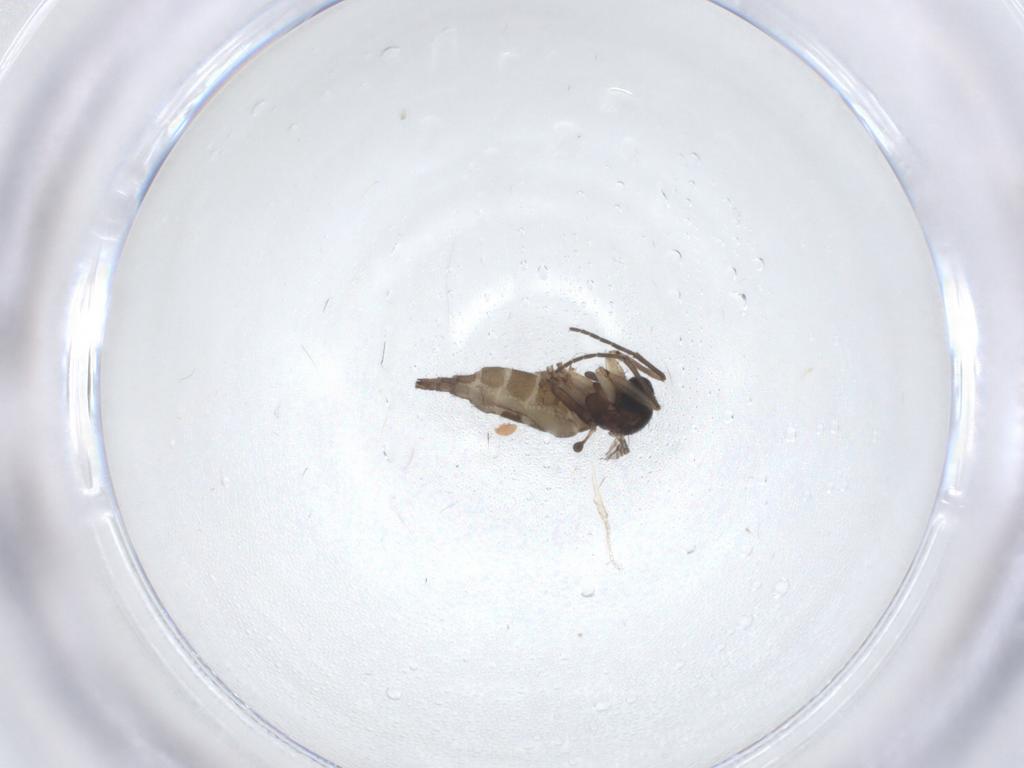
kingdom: Animalia
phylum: Arthropoda
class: Insecta
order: Diptera
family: Sciaridae
